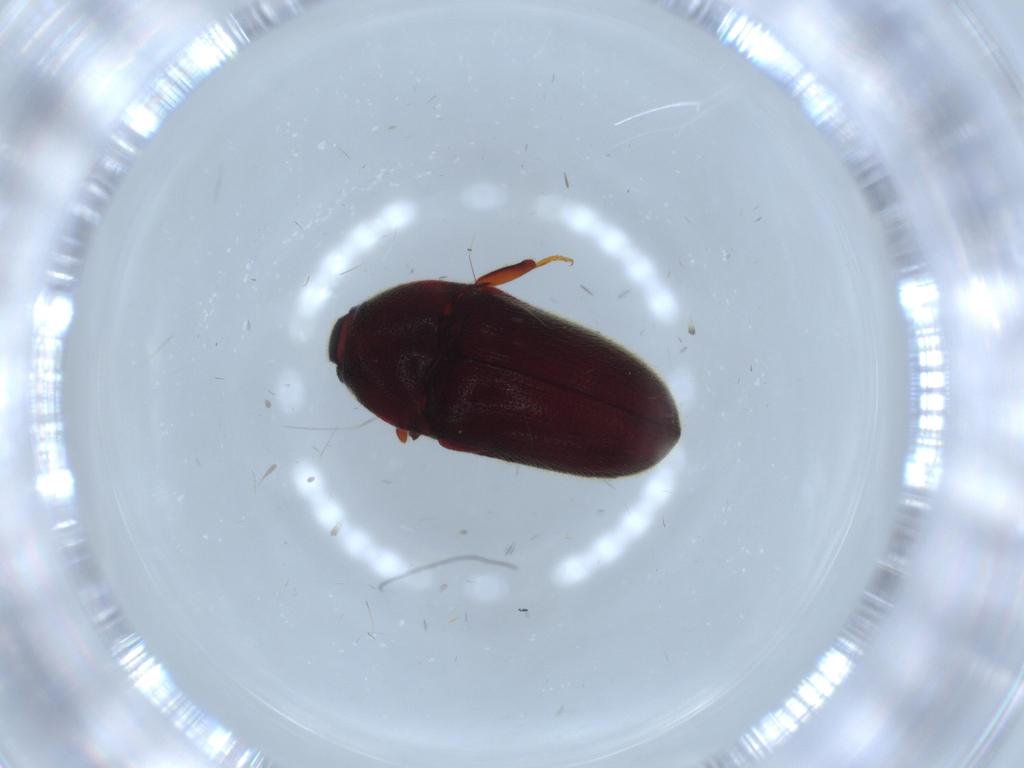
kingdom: Animalia
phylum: Arthropoda
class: Insecta
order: Coleoptera
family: Throscidae
